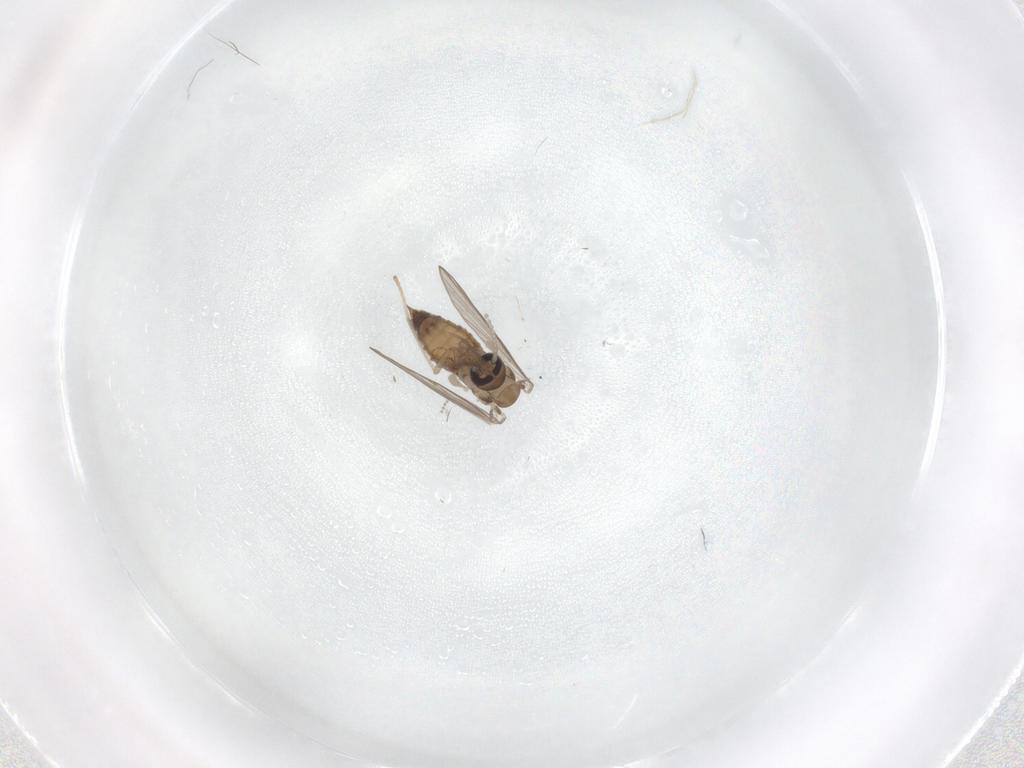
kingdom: Animalia
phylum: Arthropoda
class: Insecta
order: Diptera
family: Psychodidae
